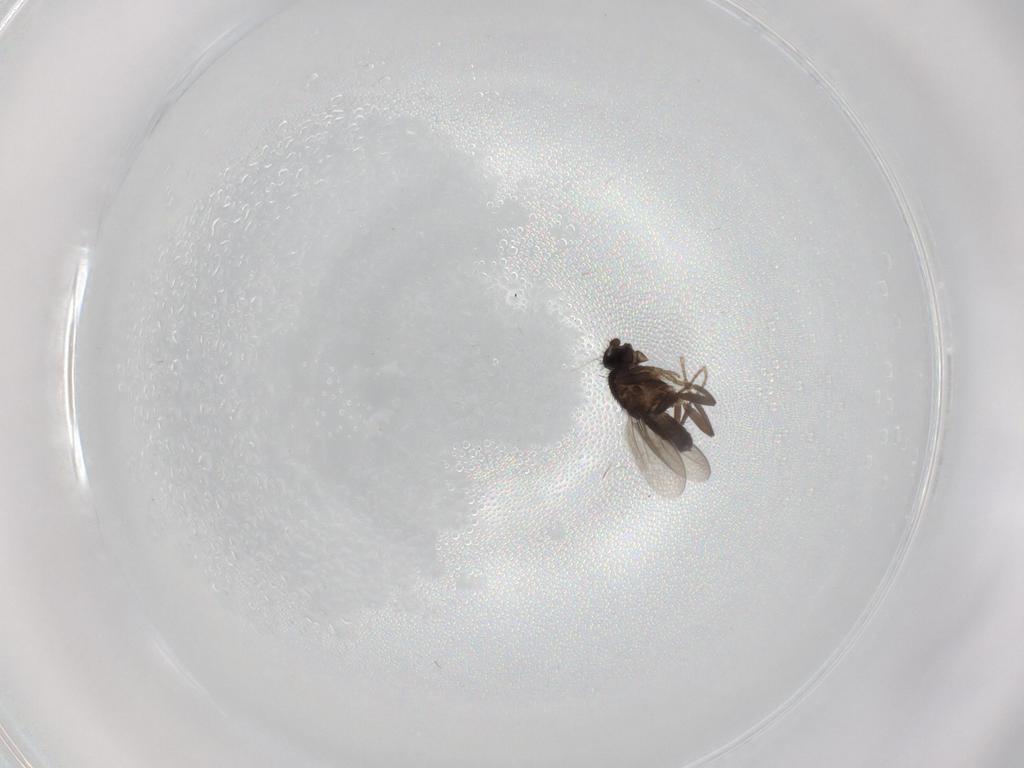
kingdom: Animalia
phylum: Arthropoda
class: Insecta
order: Diptera
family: Sphaeroceridae
